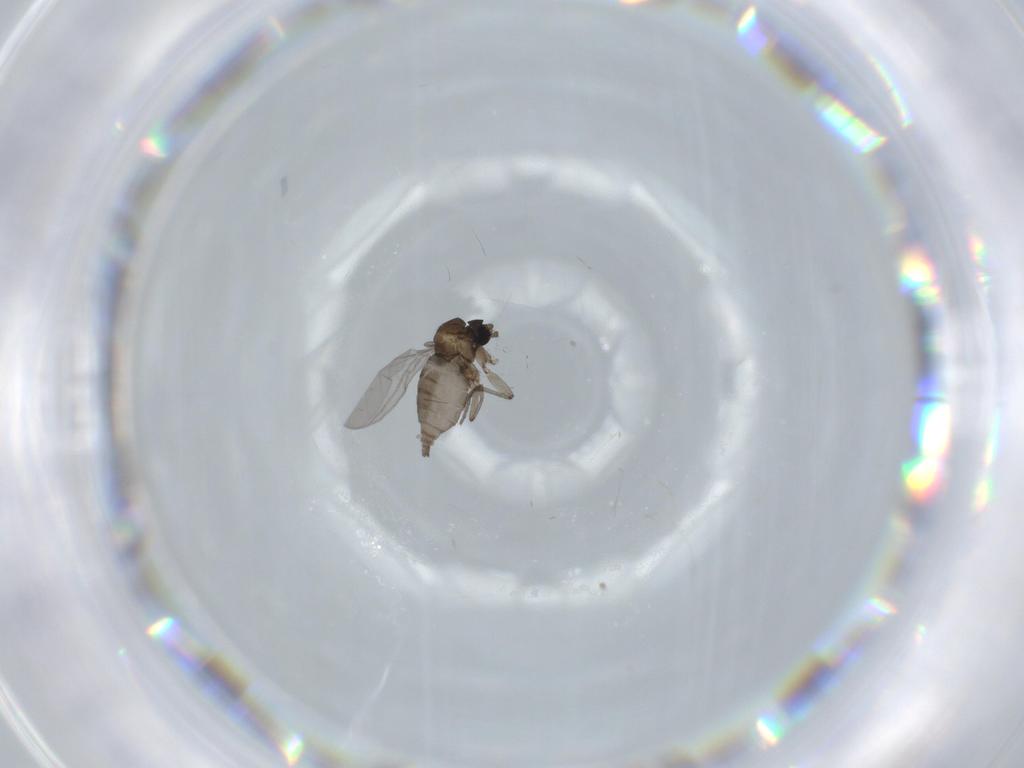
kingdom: Animalia
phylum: Arthropoda
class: Insecta
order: Diptera
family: Sciaridae
